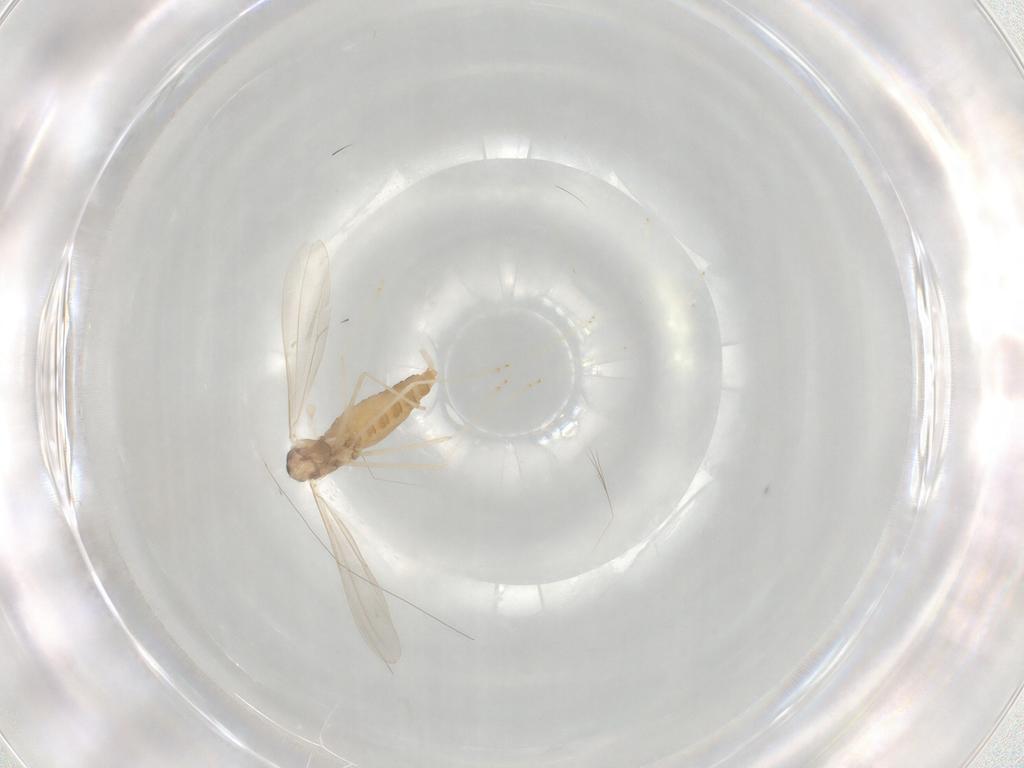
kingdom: Animalia
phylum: Arthropoda
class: Insecta
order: Diptera
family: Cecidomyiidae
